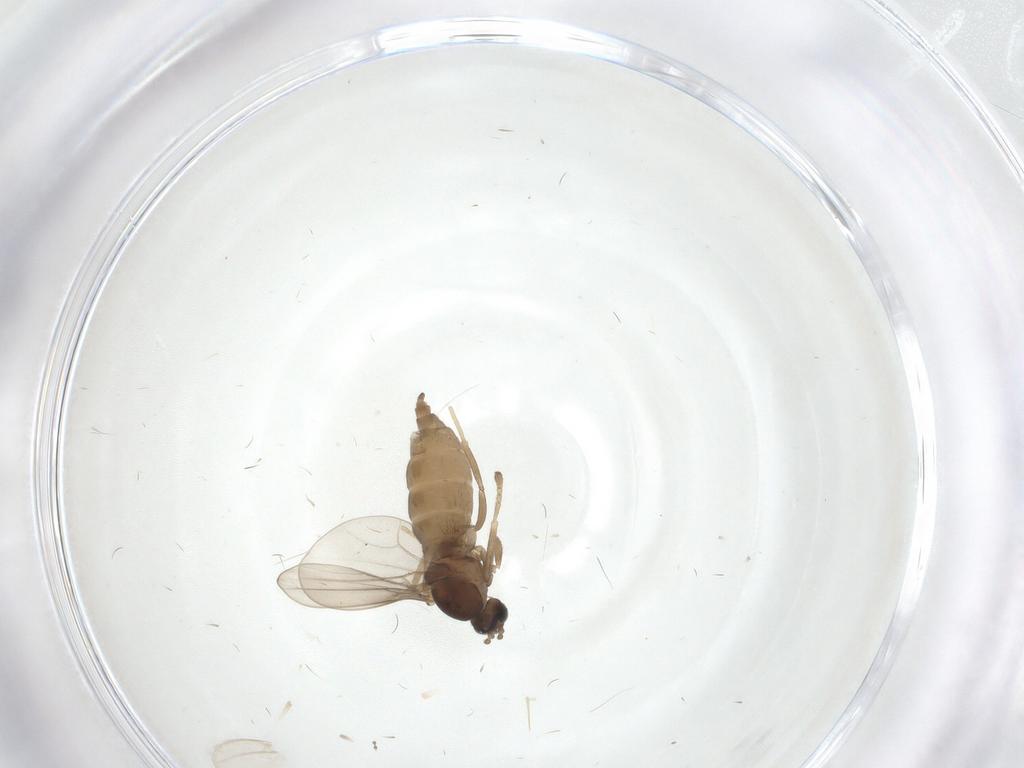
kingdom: Animalia
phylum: Arthropoda
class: Insecta
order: Diptera
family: Cecidomyiidae
